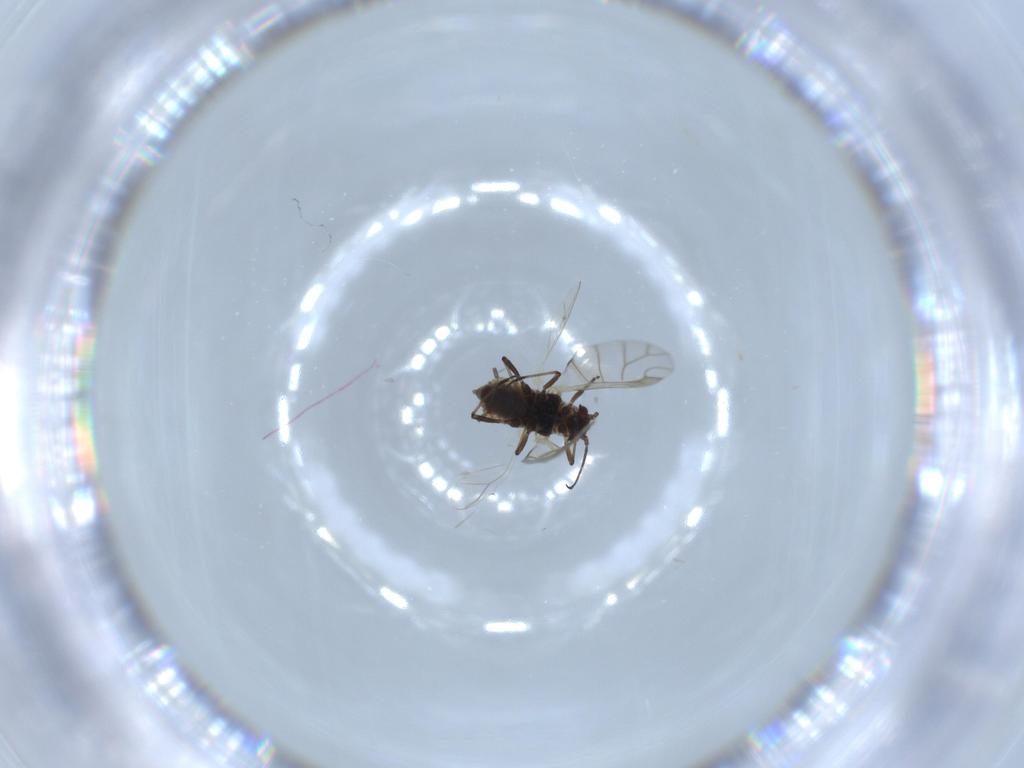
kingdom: Animalia
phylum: Arthropoda
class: Insecta
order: Hemiptera
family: Aphididae
